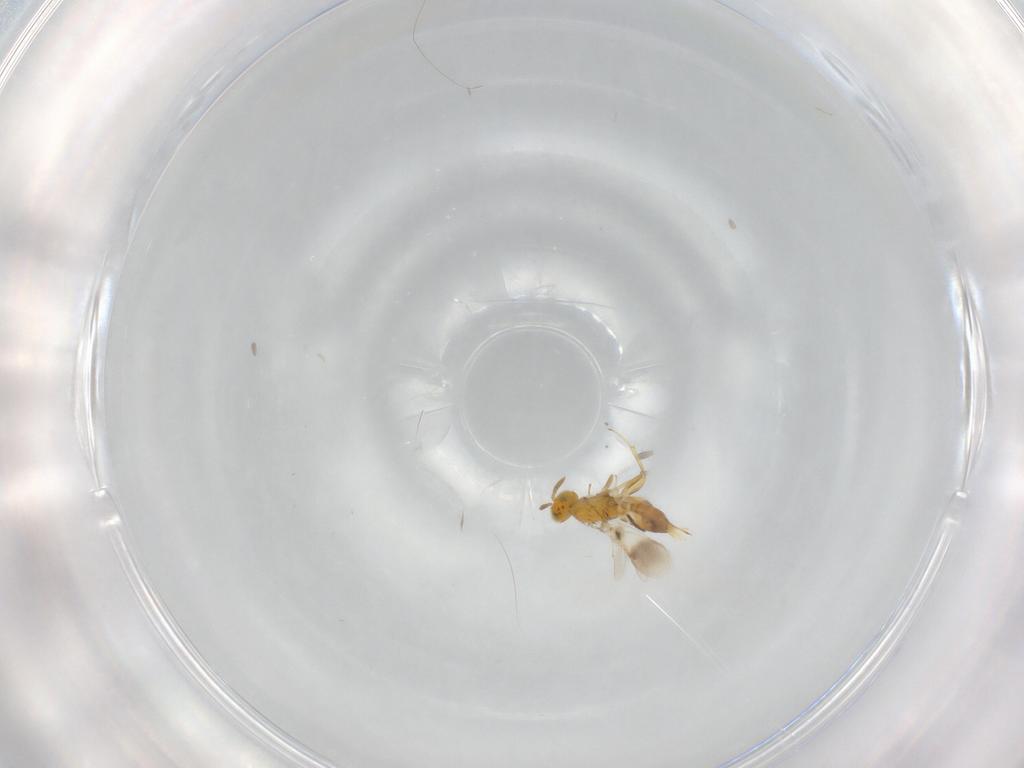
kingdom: Animalia
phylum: Arthropoda
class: Insecta
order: Hymenoptera
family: Aphelinidae
